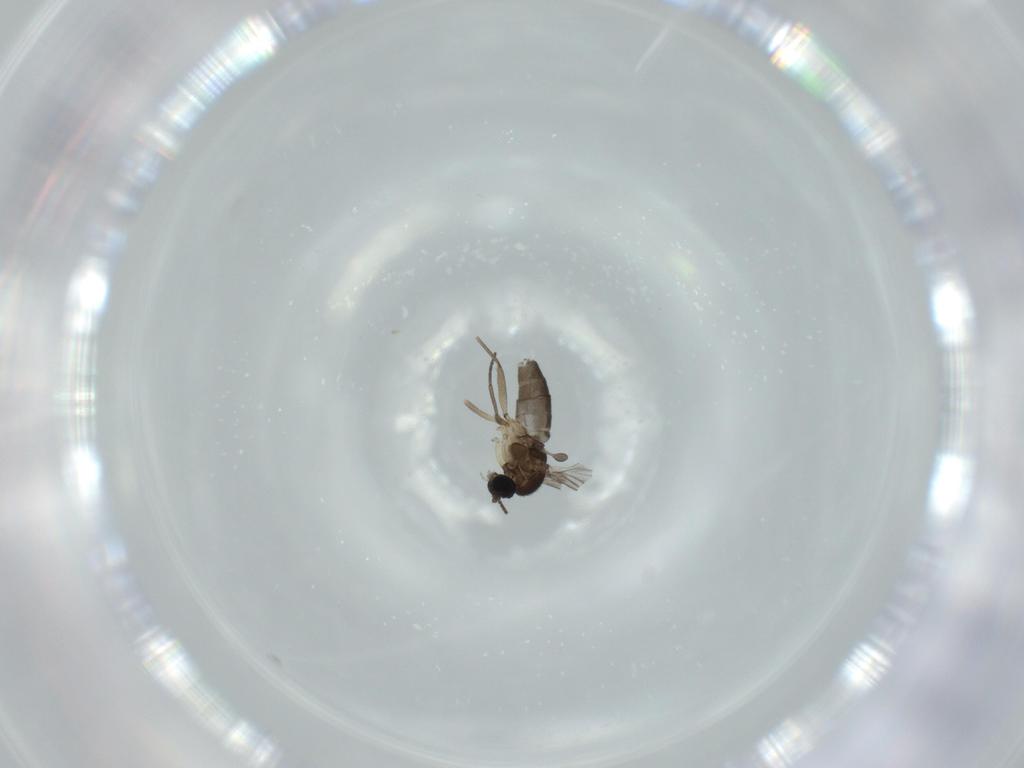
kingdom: Animalia
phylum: Arthropoda
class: Insecta
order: Diptera
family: Sciaridae
